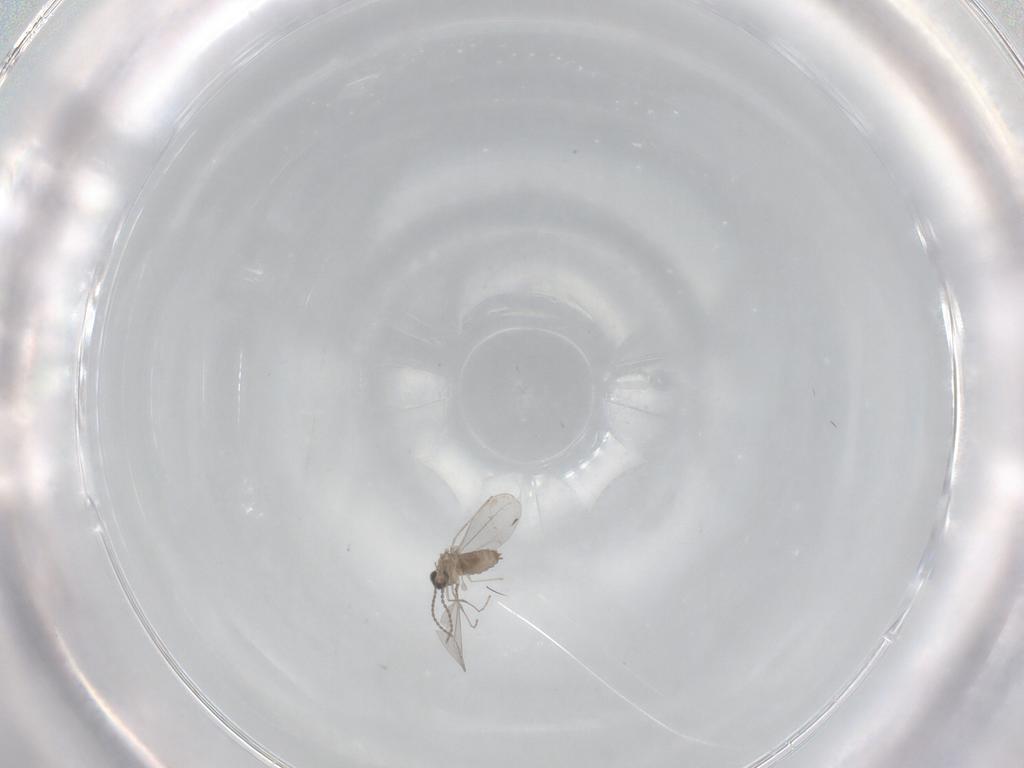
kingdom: Animalia
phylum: Arthropoda
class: Insecta
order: Diptera
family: Cecidomyiidae
